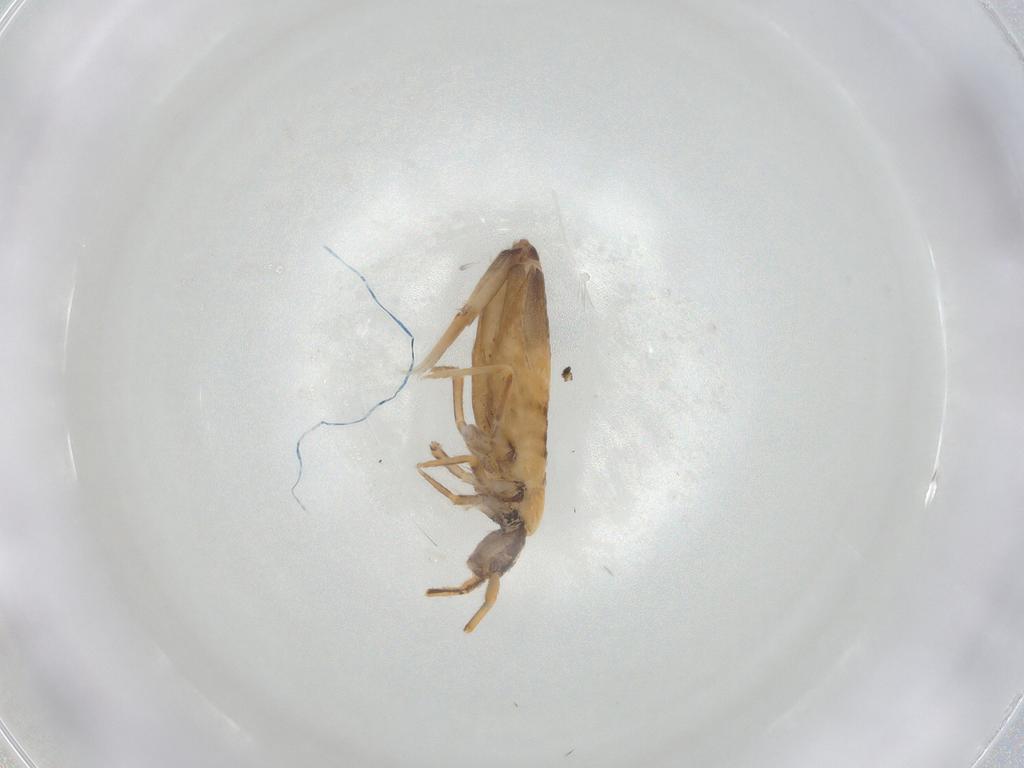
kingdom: Animalia
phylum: Arthropoda
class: Collembola
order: Entomobryomorpha
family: Entomobryidae
